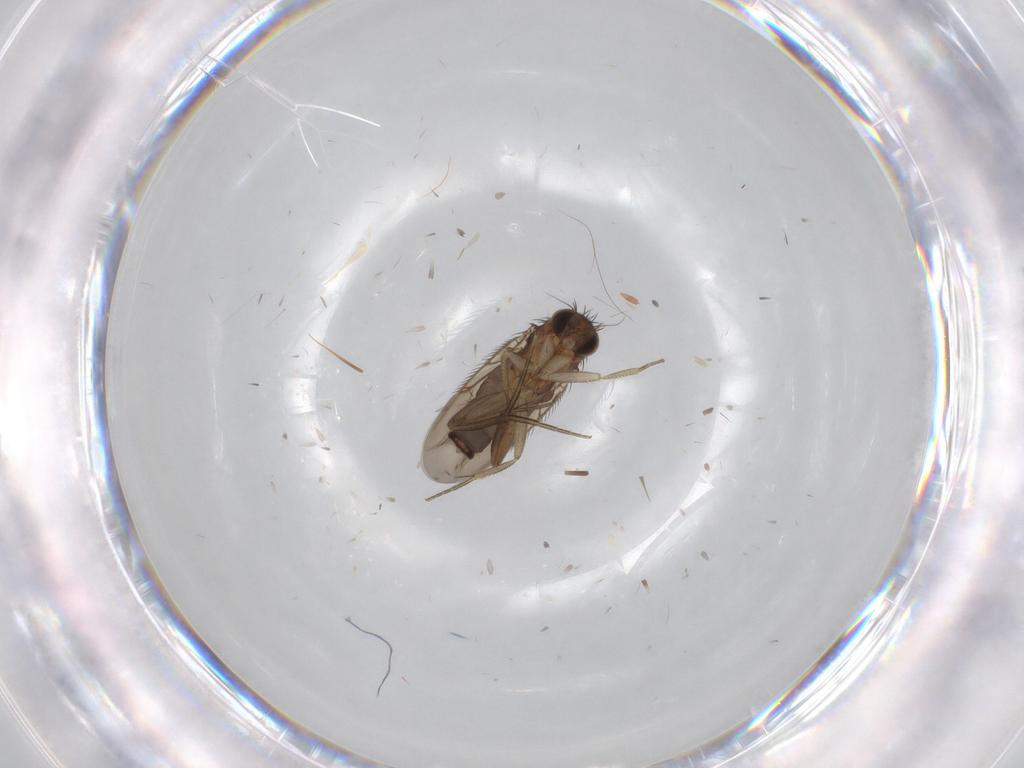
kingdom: Animalia
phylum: Arthropoda
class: Insecta
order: Diptera
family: Phoridae
